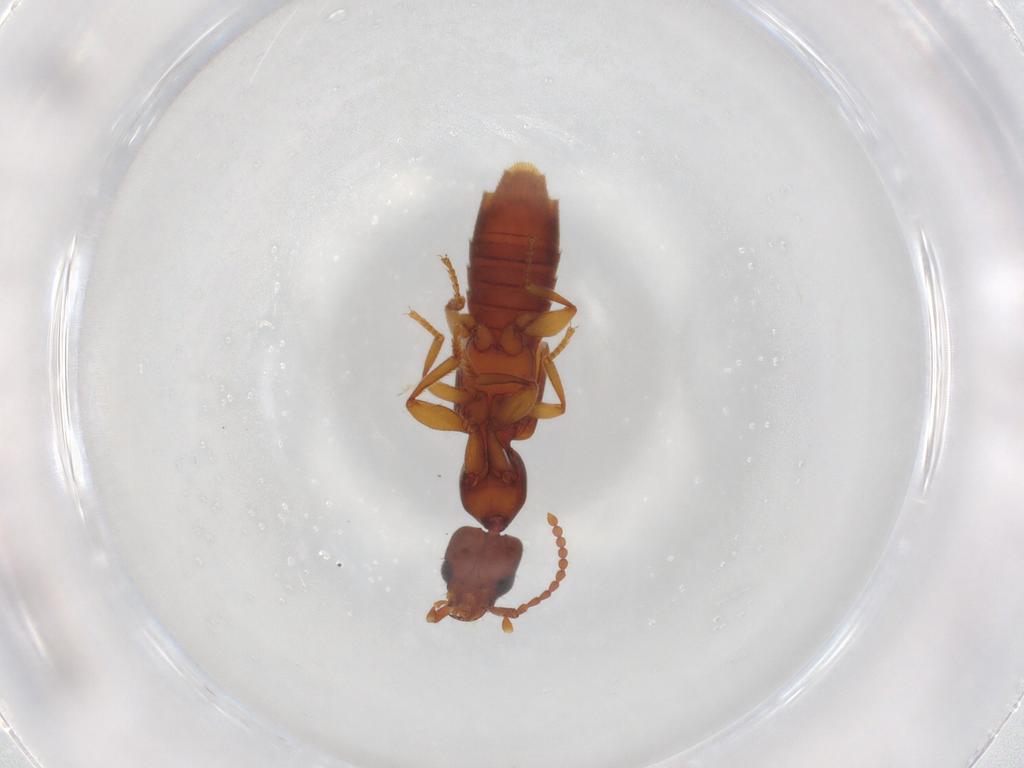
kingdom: Animalia
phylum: Arthropoda
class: Insecta
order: Coleoptera
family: Staphylinidae
